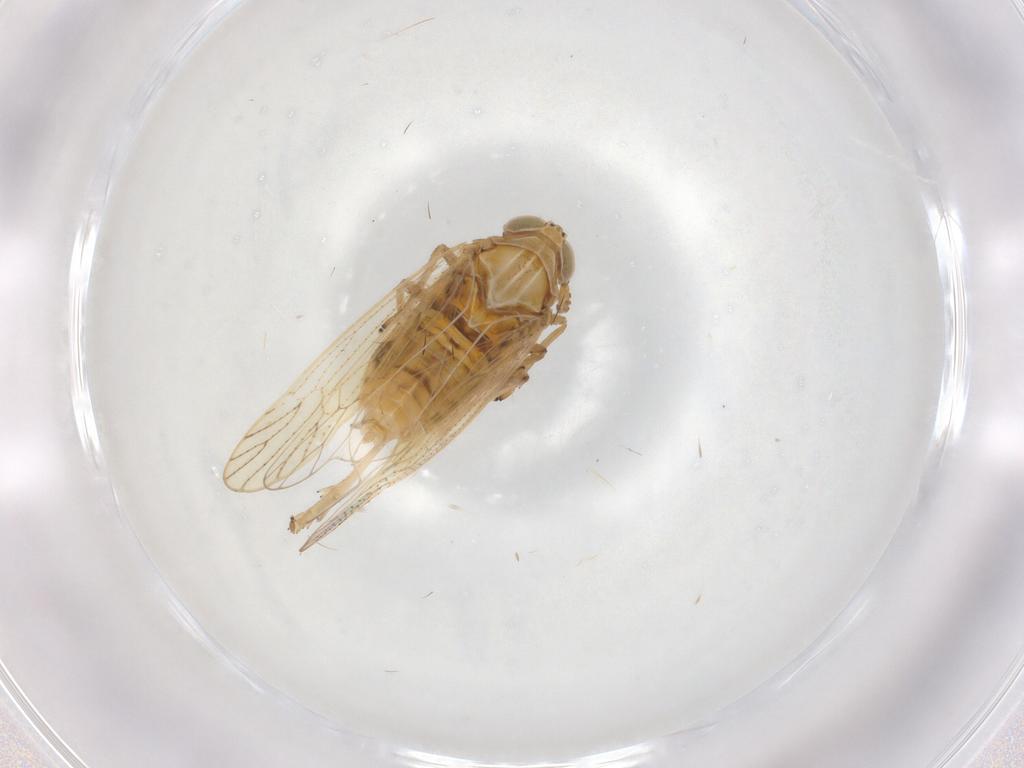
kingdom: Animalia
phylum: Arthropoda
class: Insecta
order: Hemiptera
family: Delphacidae
